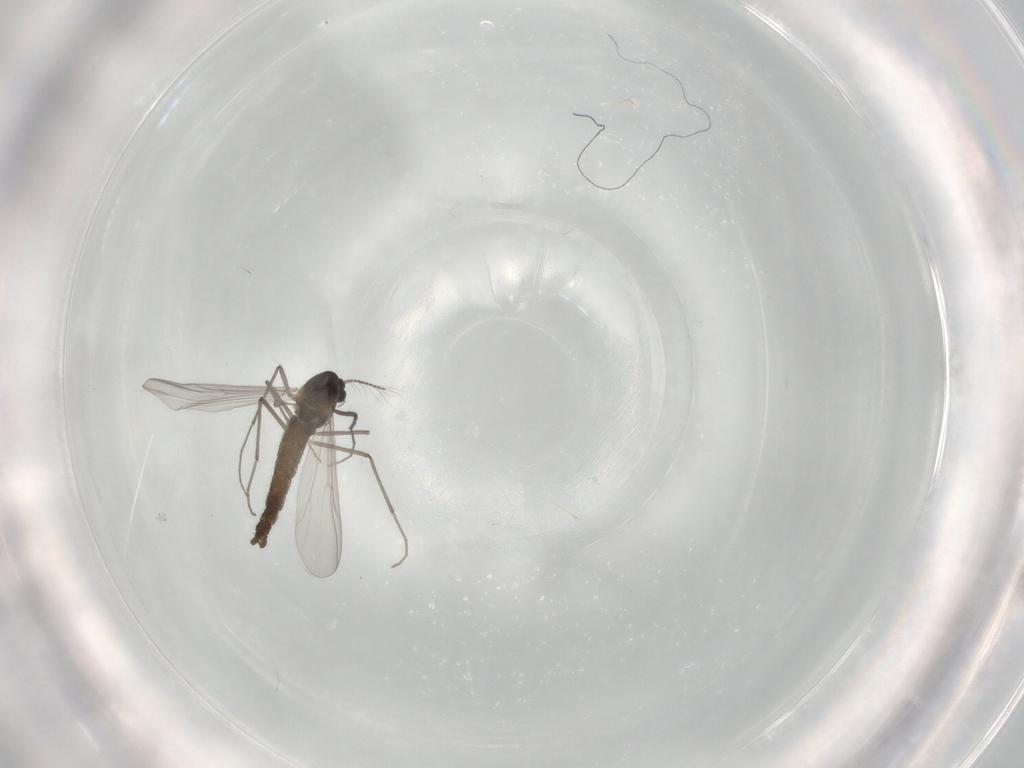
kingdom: Animalia
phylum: Arthropoda
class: Insecta
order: Diptera
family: Chironomidae
